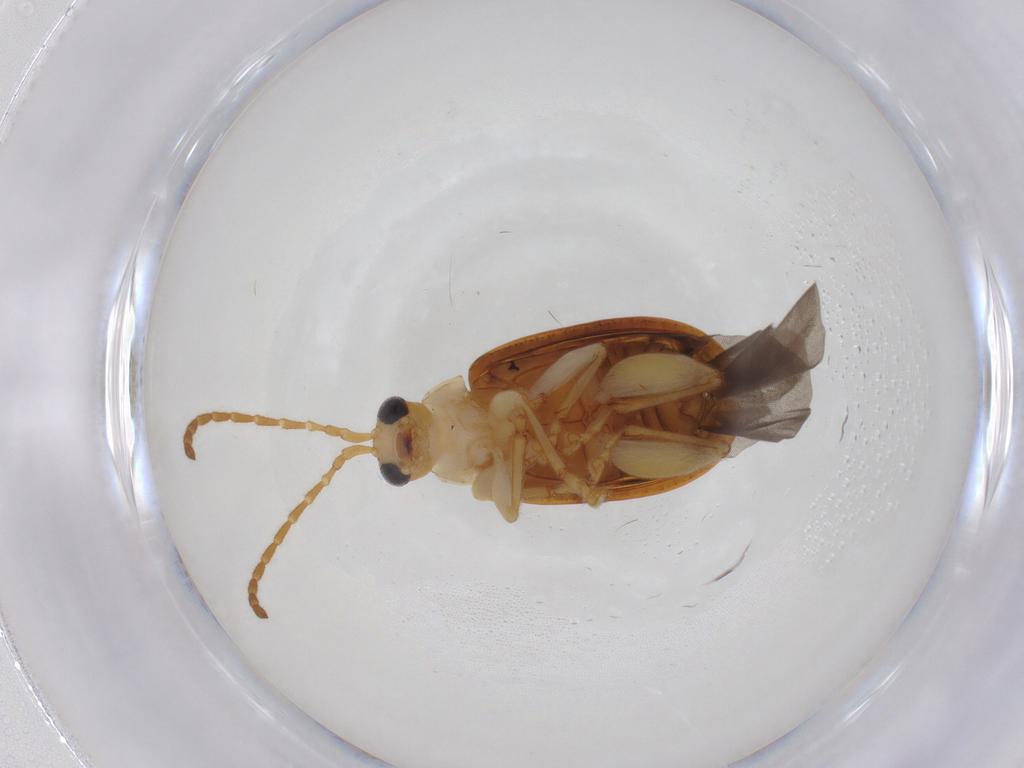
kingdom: Animalia
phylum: Arthropoda
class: Insecta
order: Coleoptera
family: Chrysomelidae
